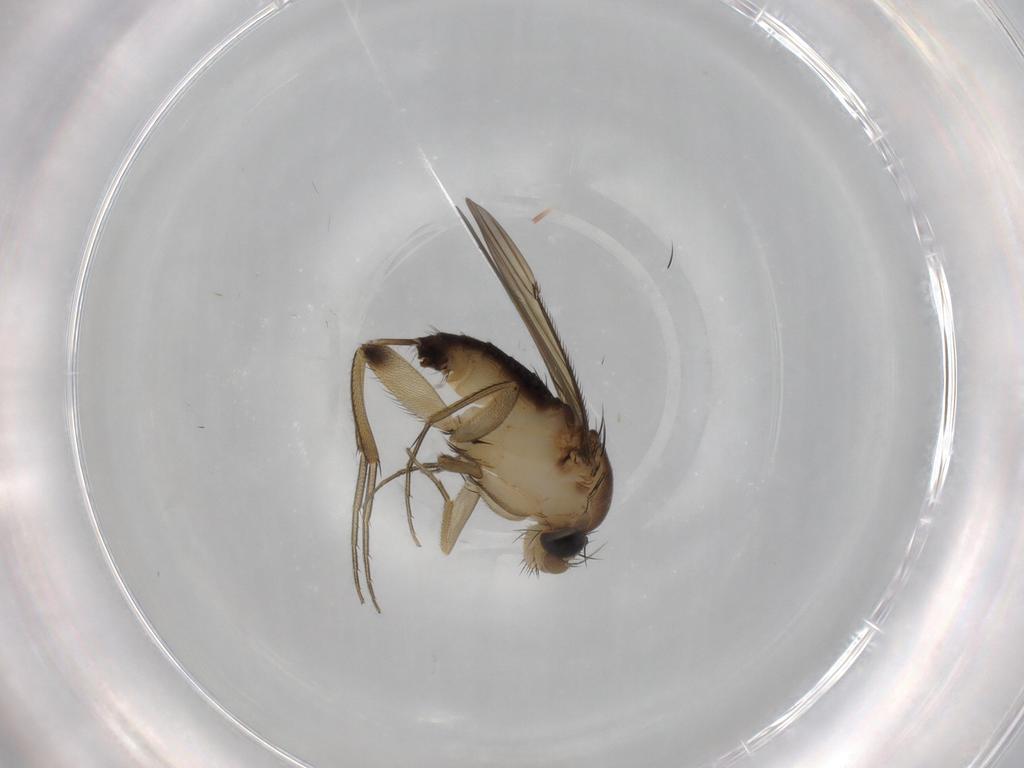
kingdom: Animalia
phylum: Arthropoda
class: Insecta
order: Diptera
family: Phoridae
